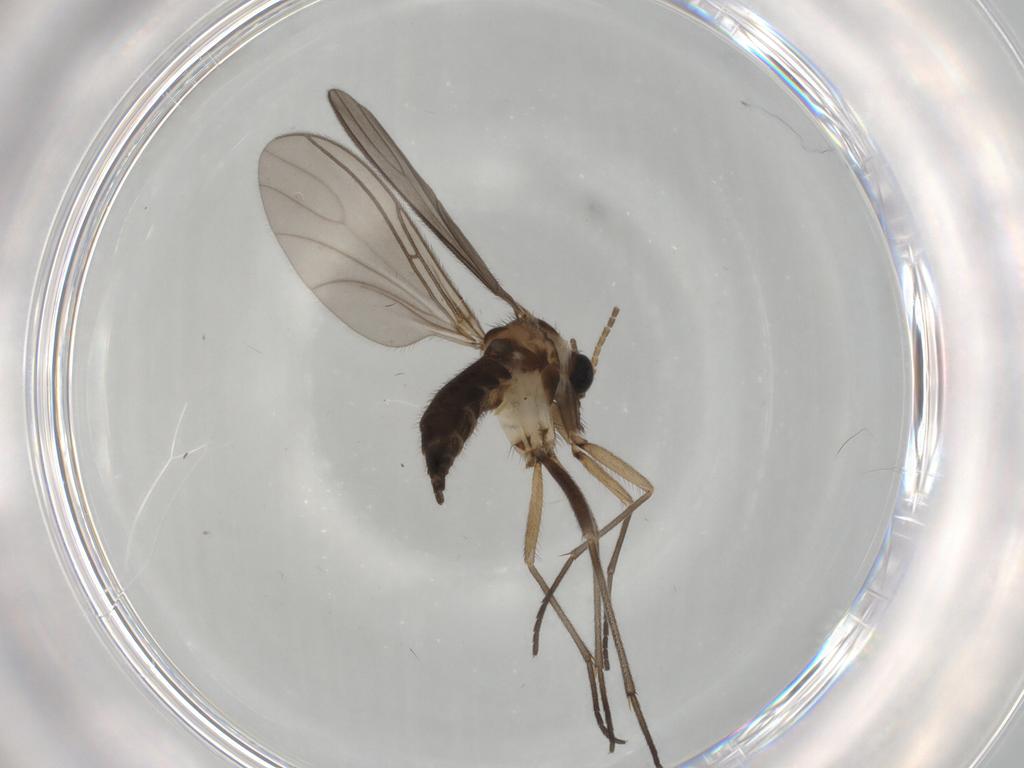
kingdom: Animalia
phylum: Arthropoda
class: Insecta
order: Diptera
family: Sciaridae
